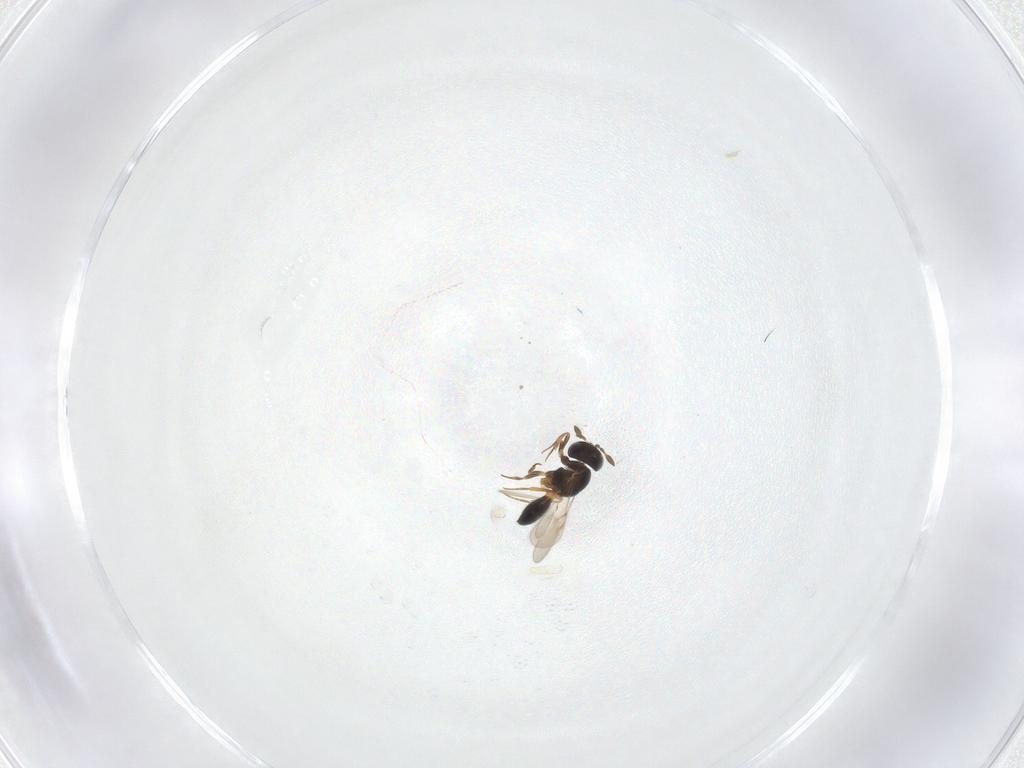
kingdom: Animalia
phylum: Arthropoda
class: Insecta
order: Hymenoptera
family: Scelionidae
